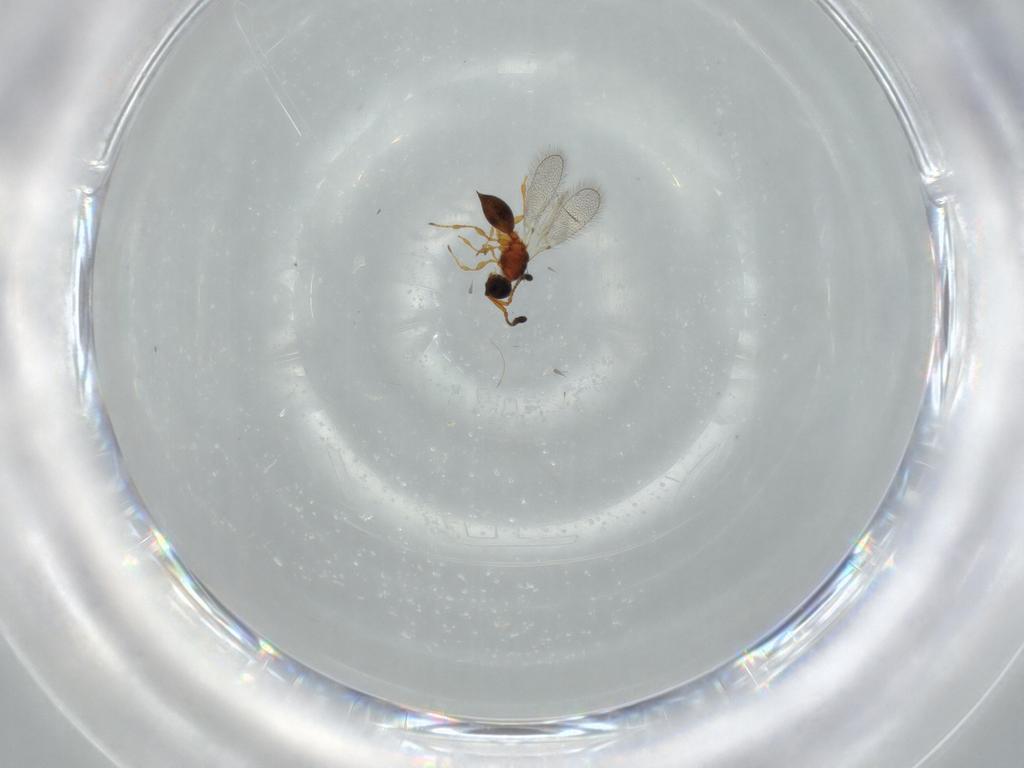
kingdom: Animalia
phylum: Arthropoda
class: Insecta
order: Hymenoptera
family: Diapriidae
